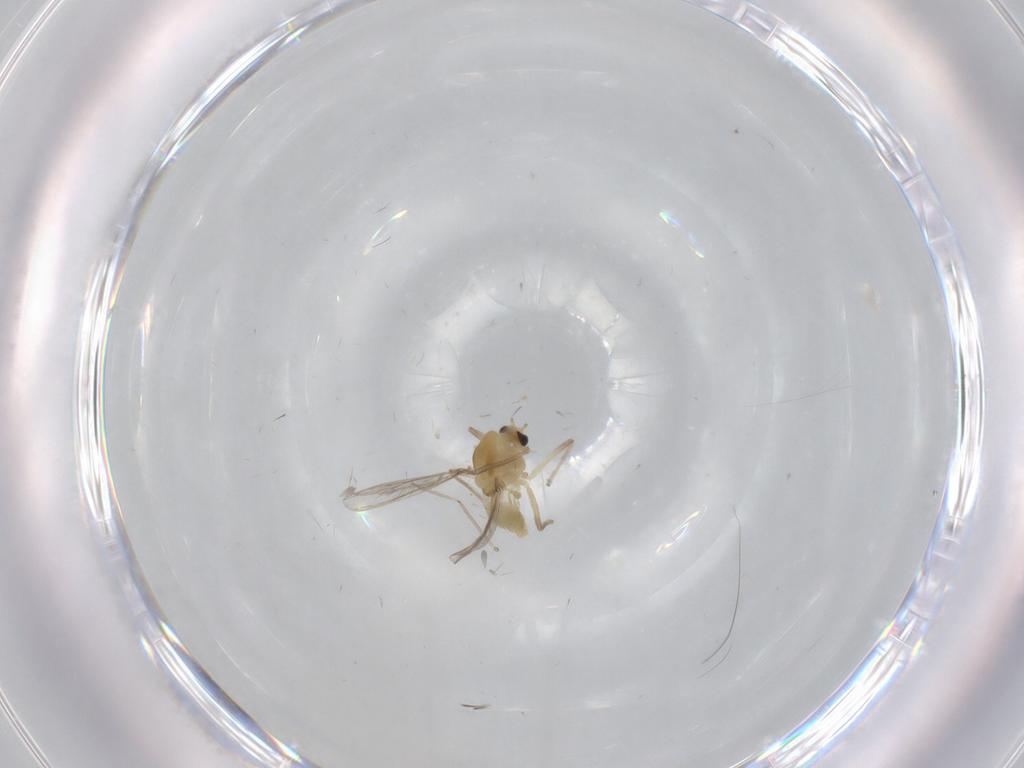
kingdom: Animalia
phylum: Arthropoda
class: Insecta
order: Diptera
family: Chironomidae
